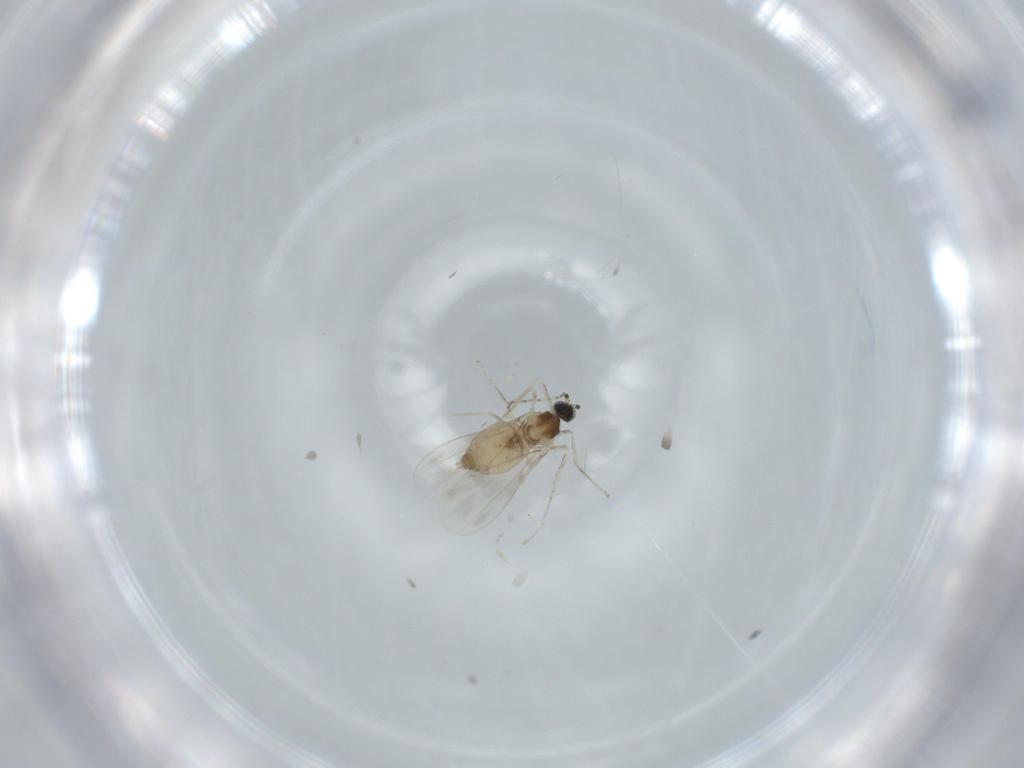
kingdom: Animalia
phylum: Arthropoda
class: Insecta
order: Diptera
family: Cecidomyiidae
